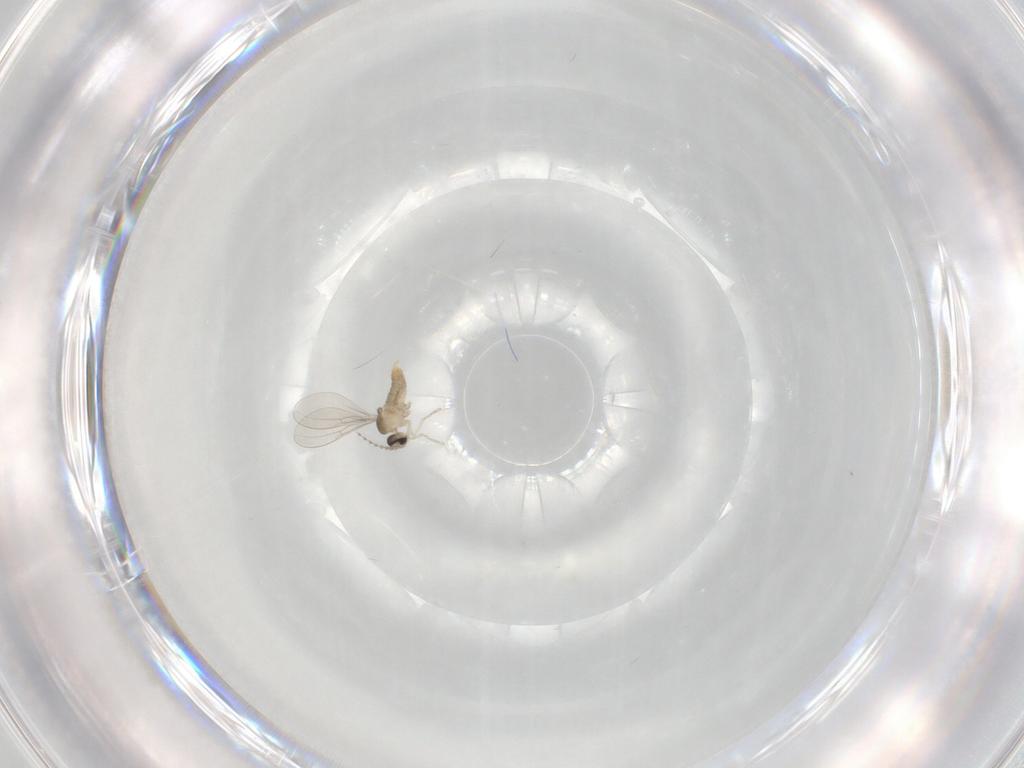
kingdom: Animalia
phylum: Arthropoda
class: Insecta
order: Diptera
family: Cecidomyiidae
